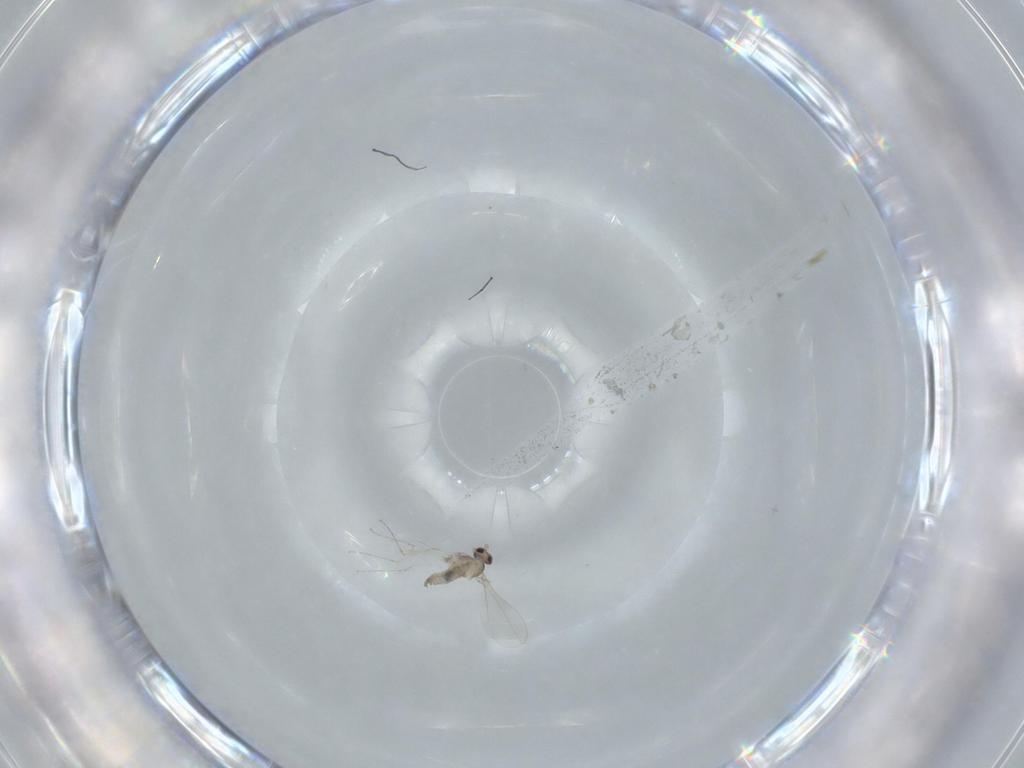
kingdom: Animalia
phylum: Arthropoda
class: Insecta
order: Diptera
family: Cecidomyiidae
